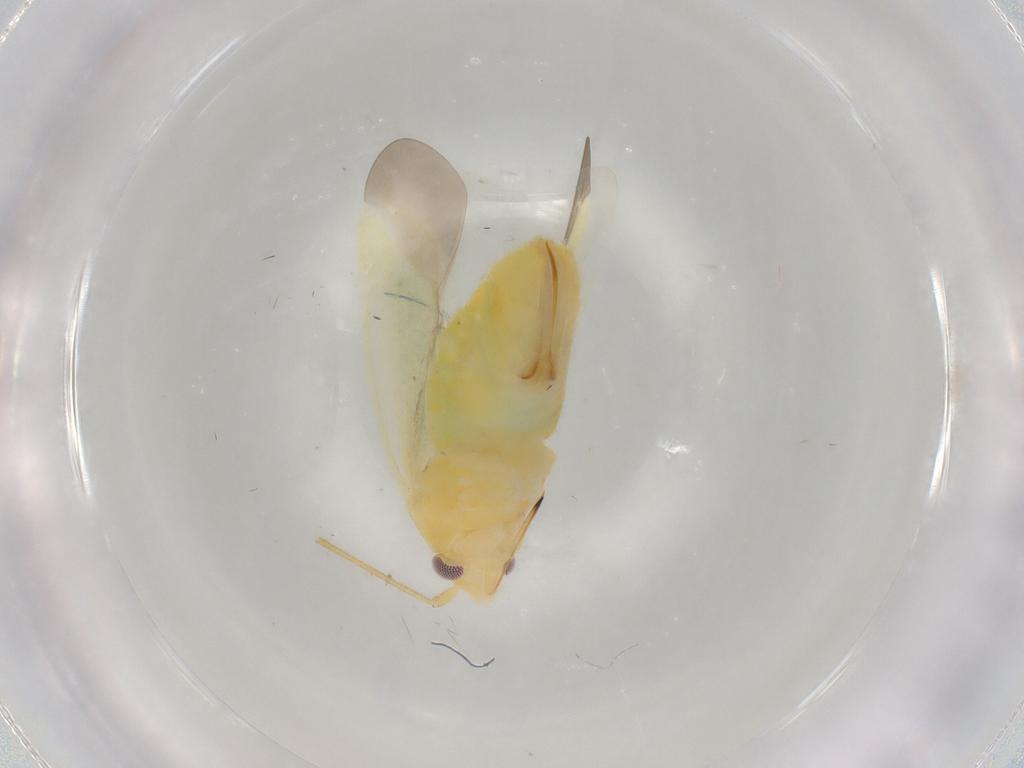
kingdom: Animalia
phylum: Arthropoda
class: Insecta
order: Hemiptera
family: Miridae
